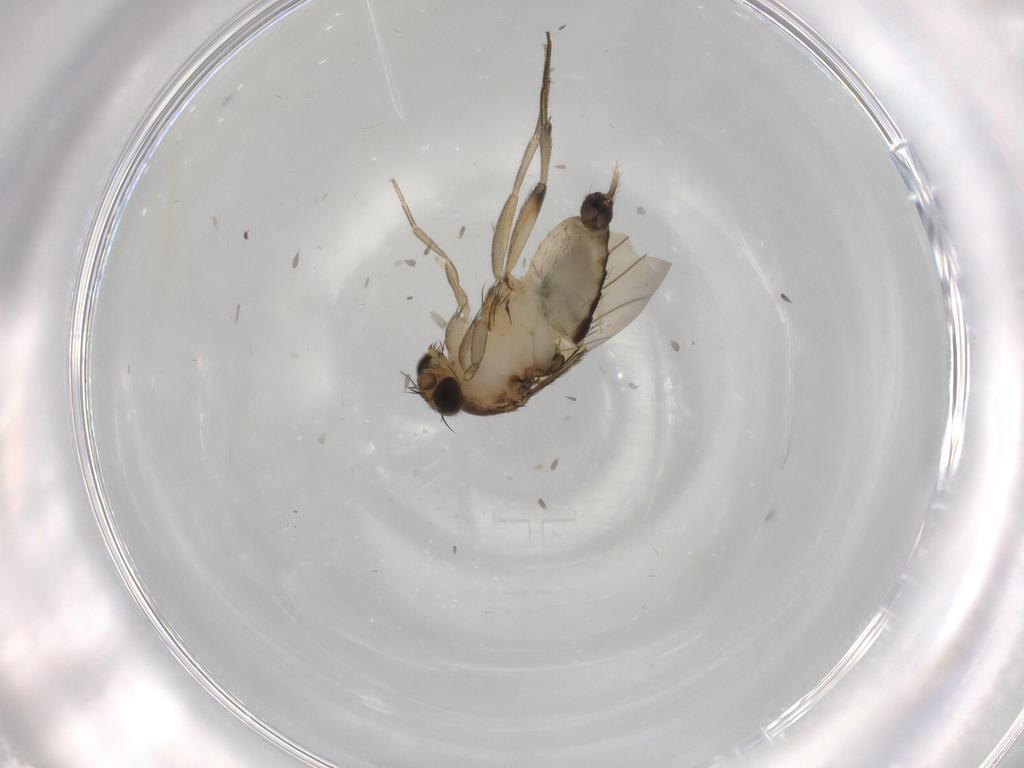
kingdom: Animalia
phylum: Arthropoda
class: Insecta
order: Diptera
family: Phoridae
